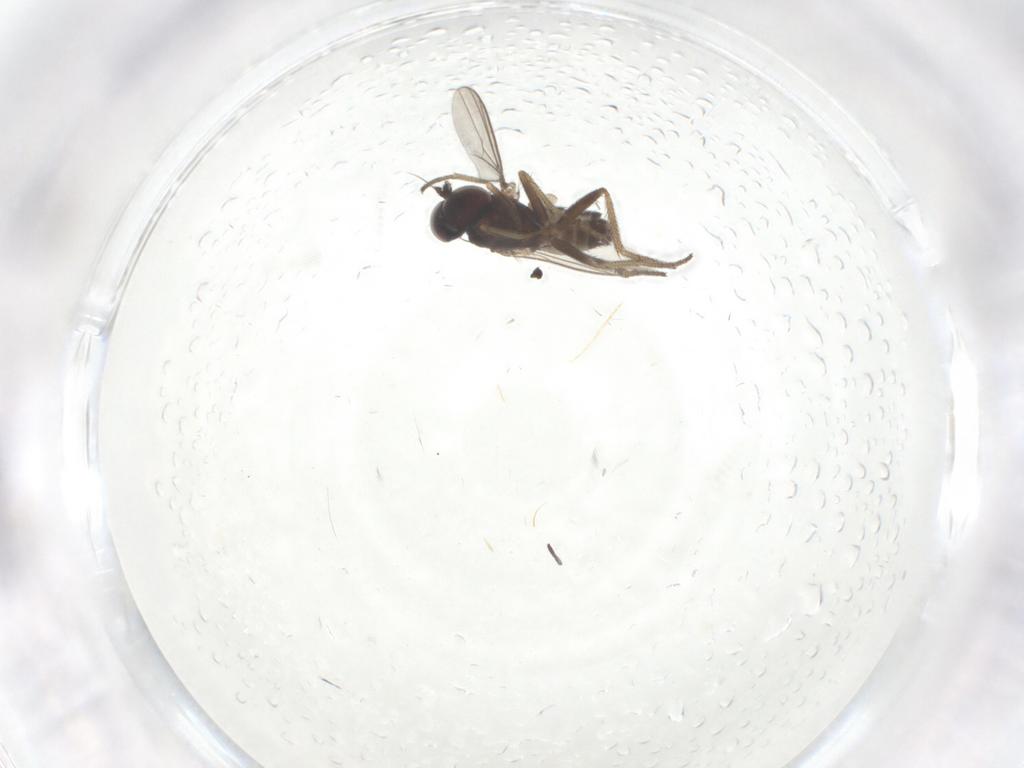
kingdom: Animalia
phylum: Arthropoda
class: Insecta
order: Diptera
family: Dolichopodidae
